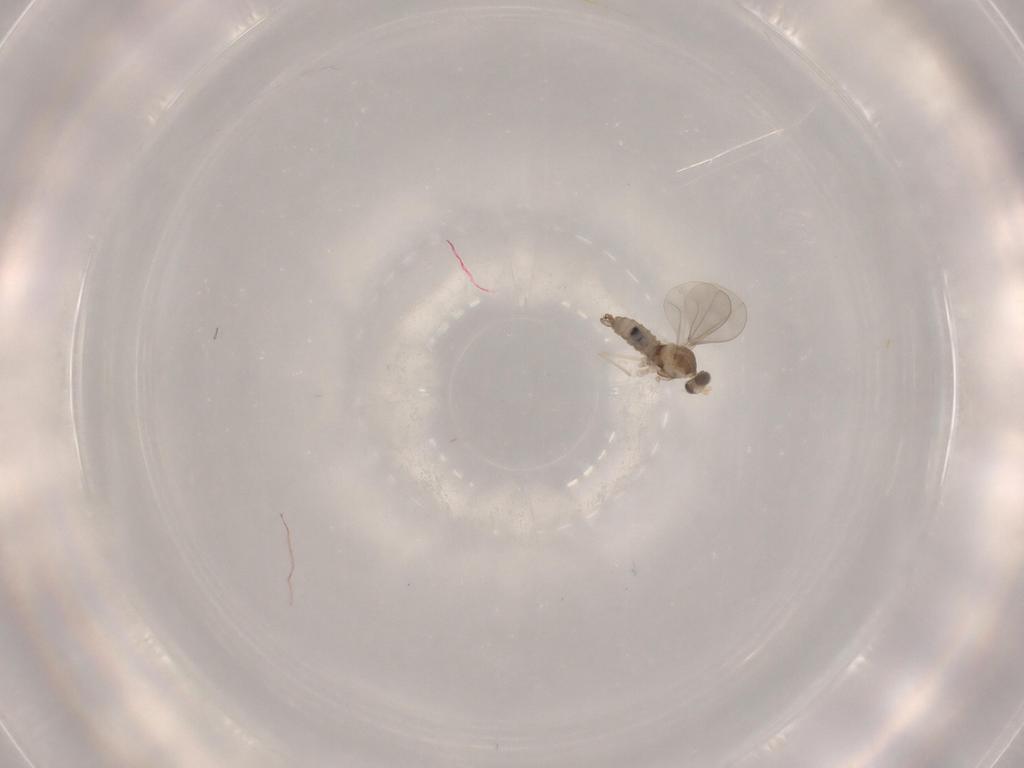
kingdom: Animalia
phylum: Arthropoda
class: Insecta
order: Diptera
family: Cecidomyiidae
